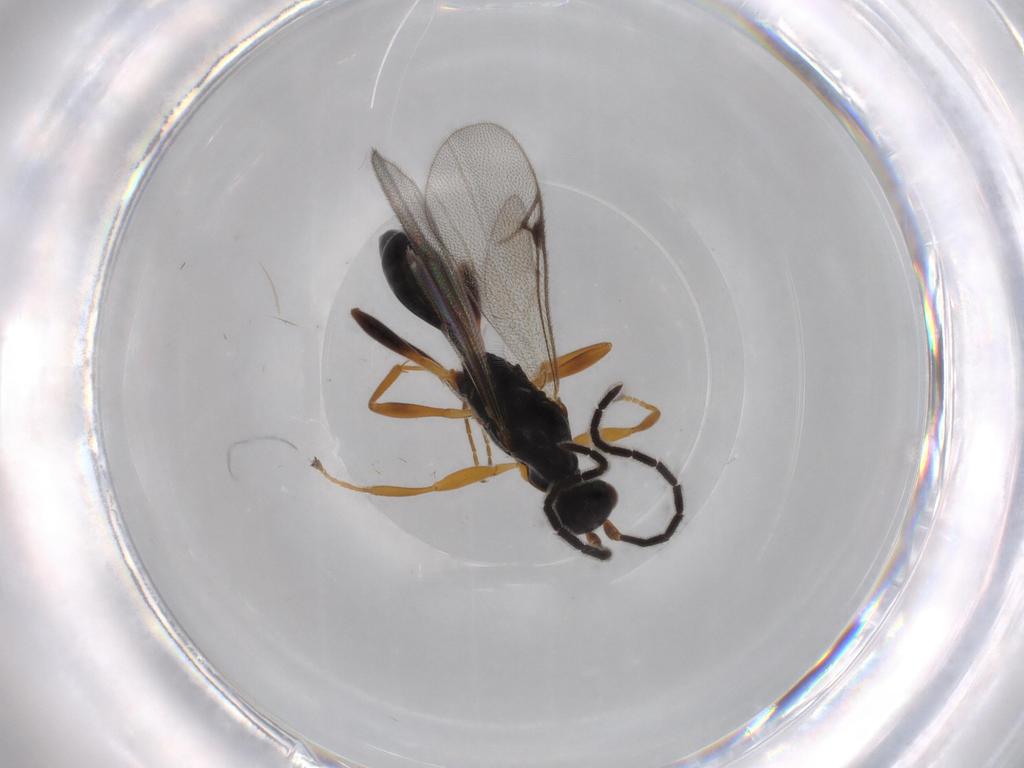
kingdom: Animalia
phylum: Arthropoda
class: Insecta
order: Hymenoptera
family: Proctotrupidae
